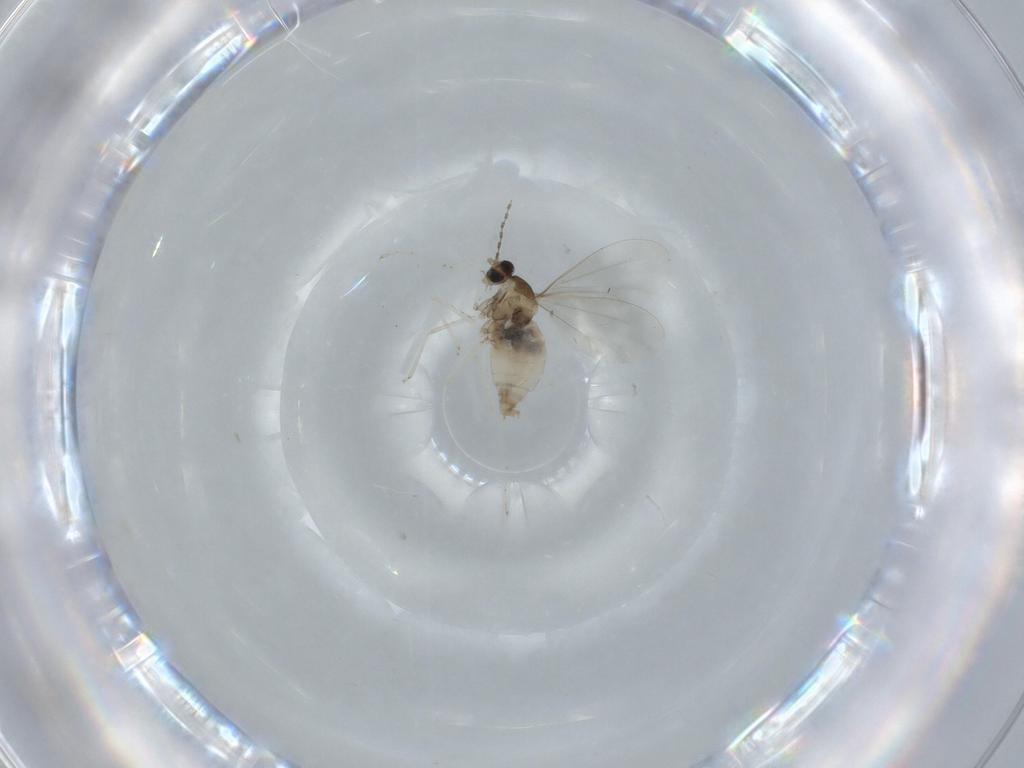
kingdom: Animalia
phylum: Arthropoda
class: Insecta
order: Diptera
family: Cecidomyiidae
